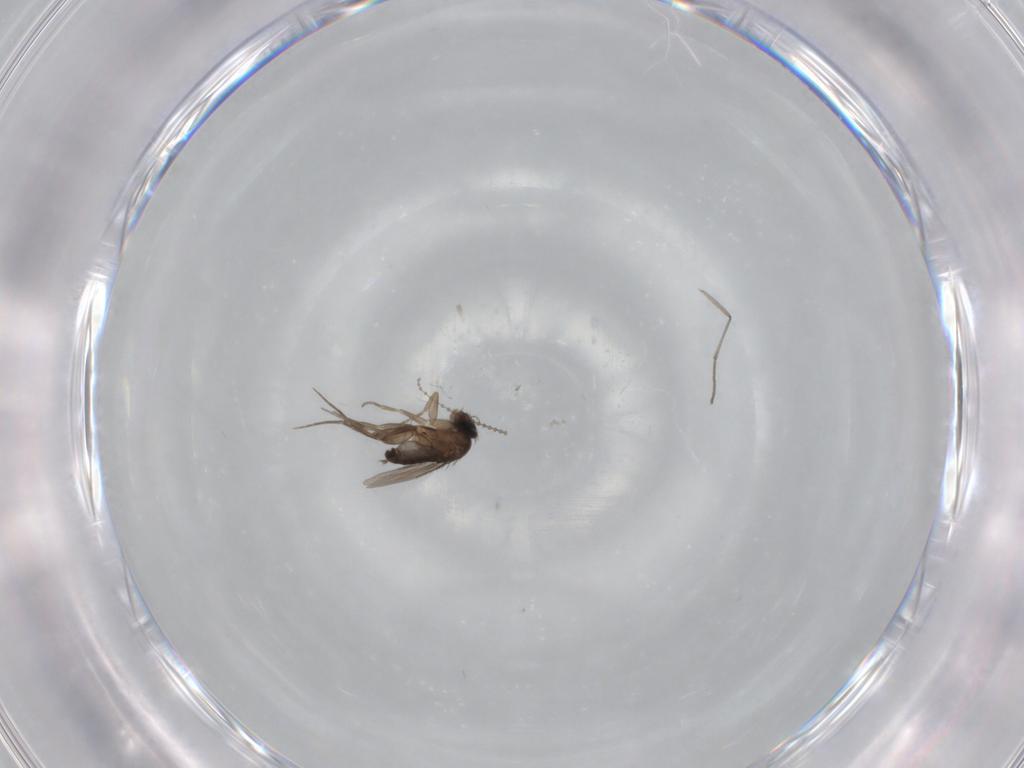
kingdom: Animalia
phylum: Arthropoda
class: Insecta
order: Diptera
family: Phoridae
